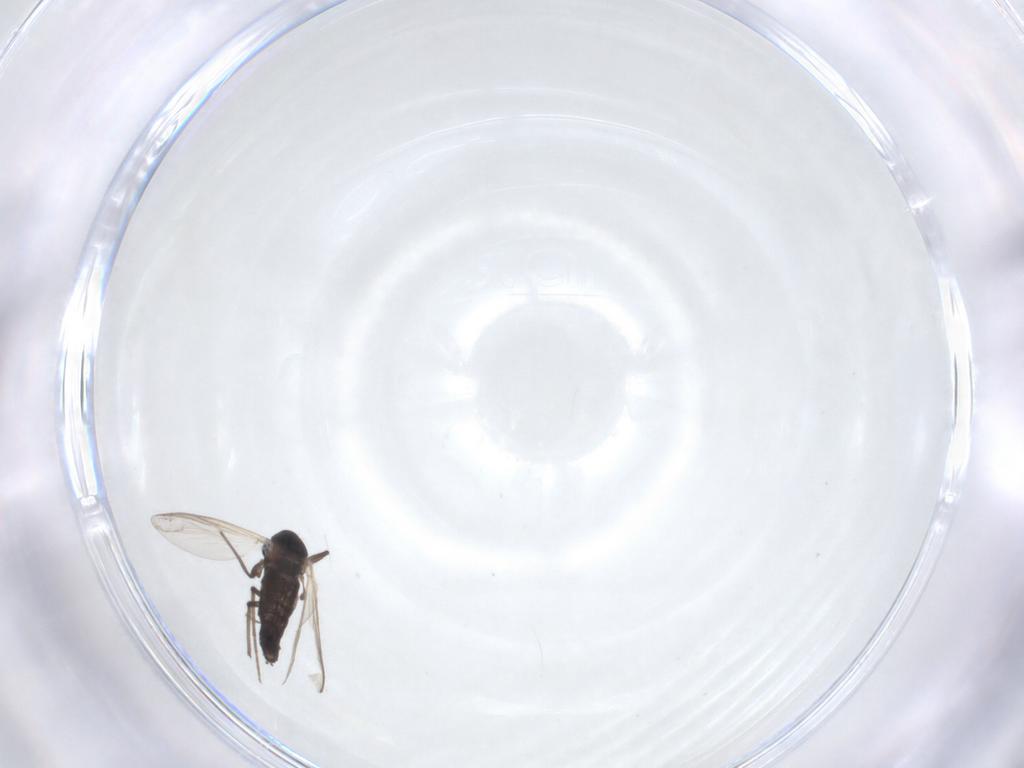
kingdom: Animalia
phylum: Arthropoda
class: Insecta
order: Diptera
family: Chironomidae
